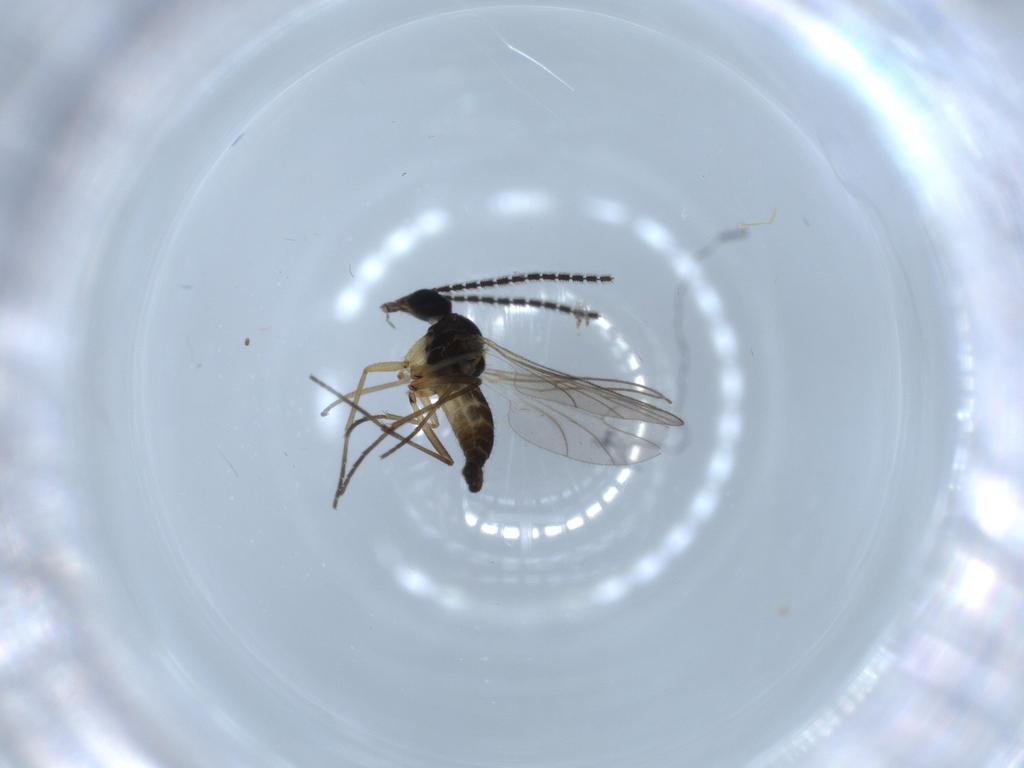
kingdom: Animalia
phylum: Arthropoda
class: Insecta
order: Diptera
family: Sciaridae
